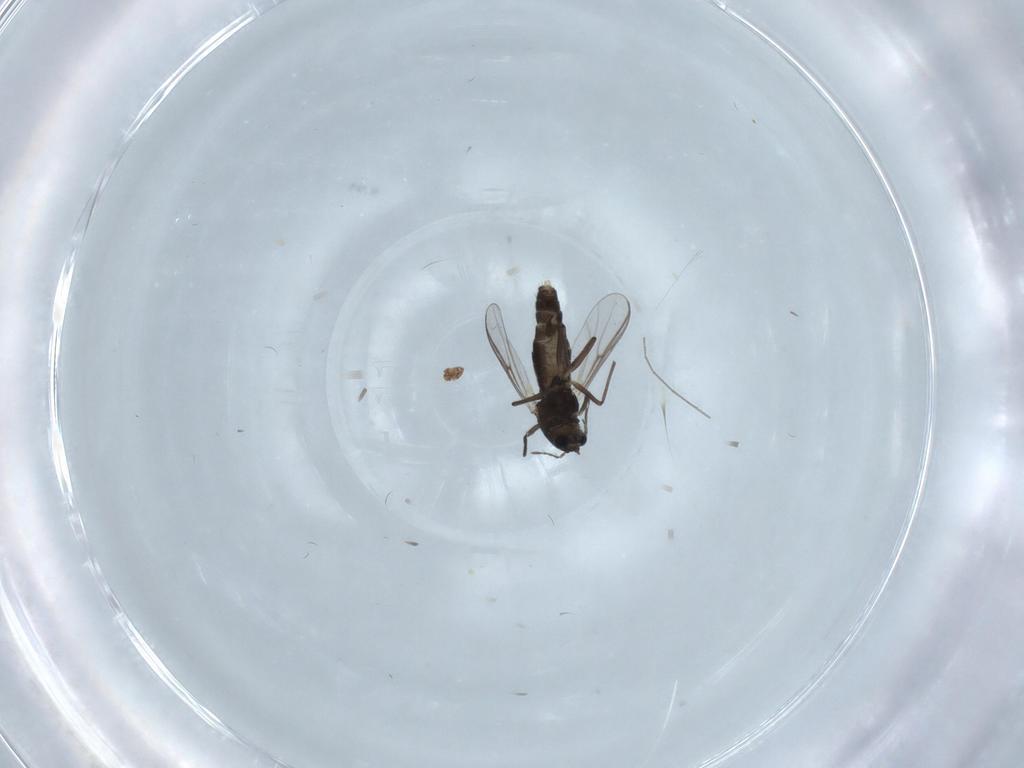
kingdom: Animalia
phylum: Arthropoda
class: Insecta
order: Diptera
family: Chironomidae
